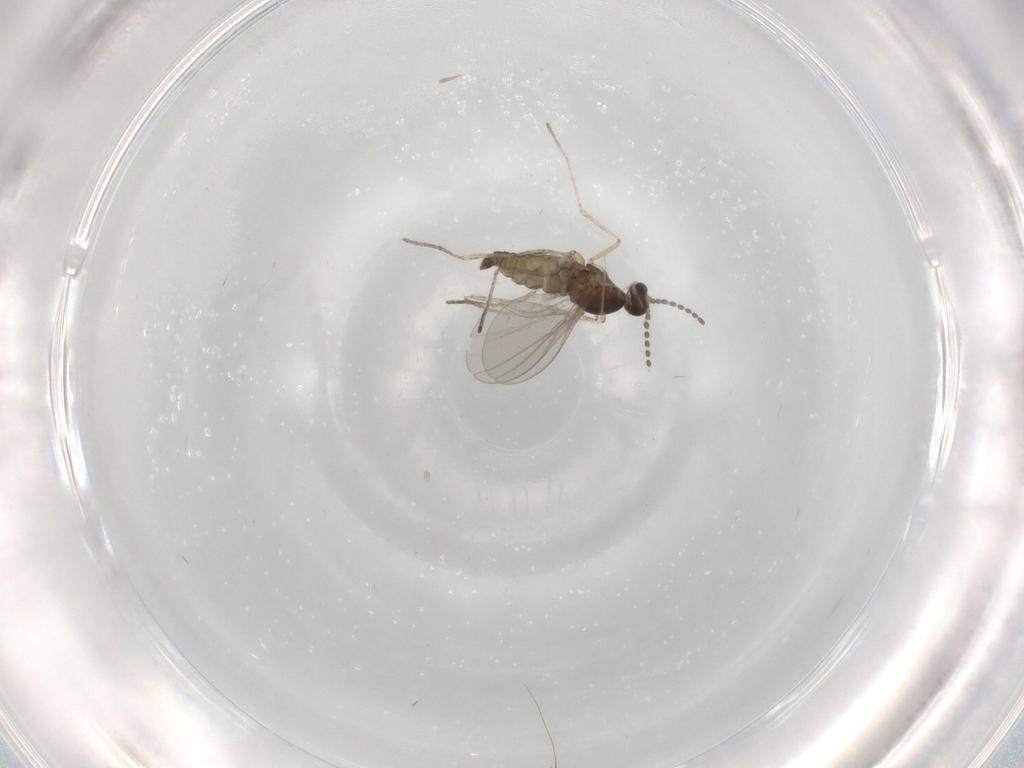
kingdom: Animalia
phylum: Arthropoda
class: Insecta
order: Diptera
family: Cecidomyiidae
